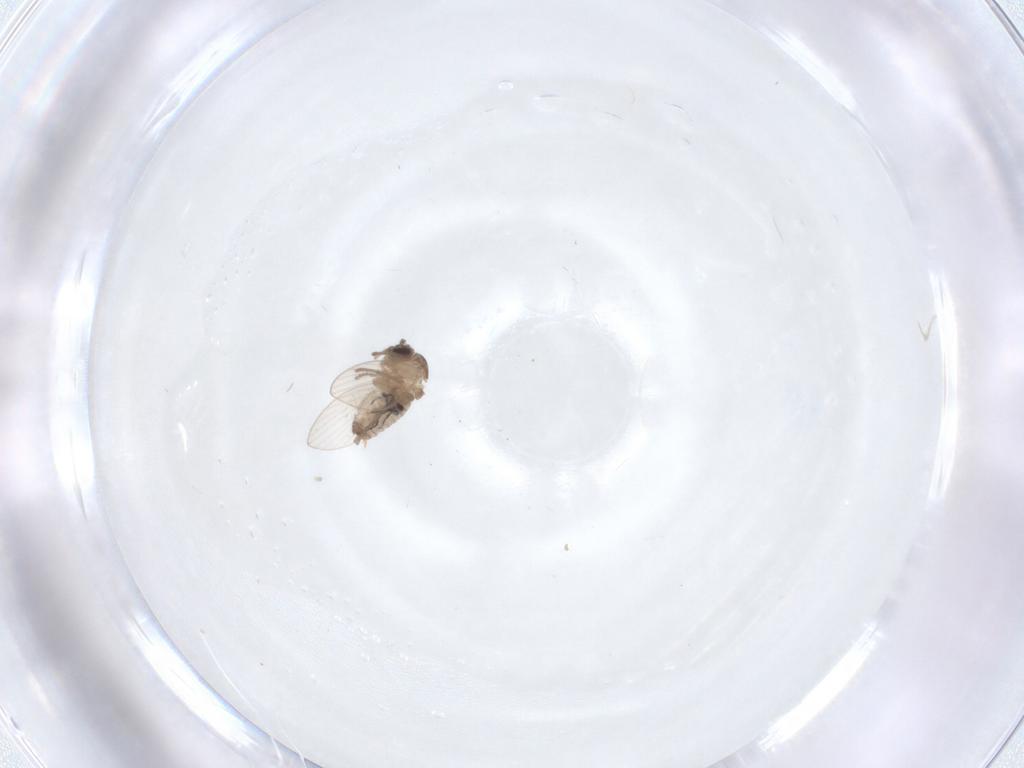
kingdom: Animalia
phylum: Arthropoda
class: Insecta
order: Diptera
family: Psychodidae
